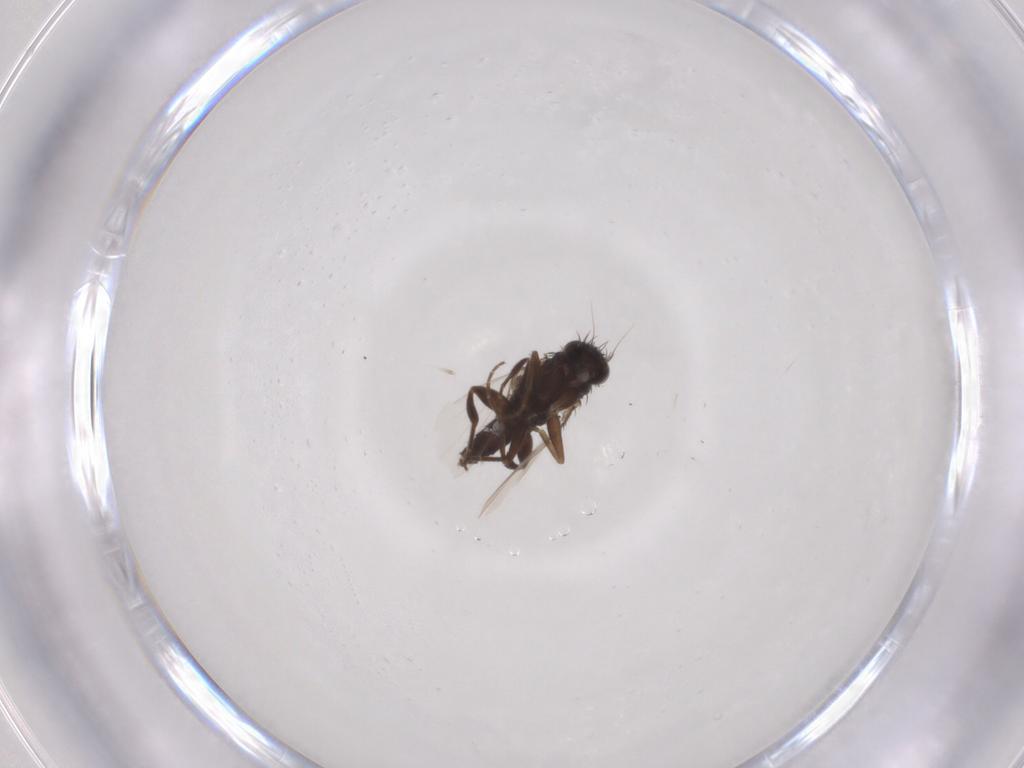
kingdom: Animalia
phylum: Arthropoda
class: Insecta
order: Diptera
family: Phoridae
